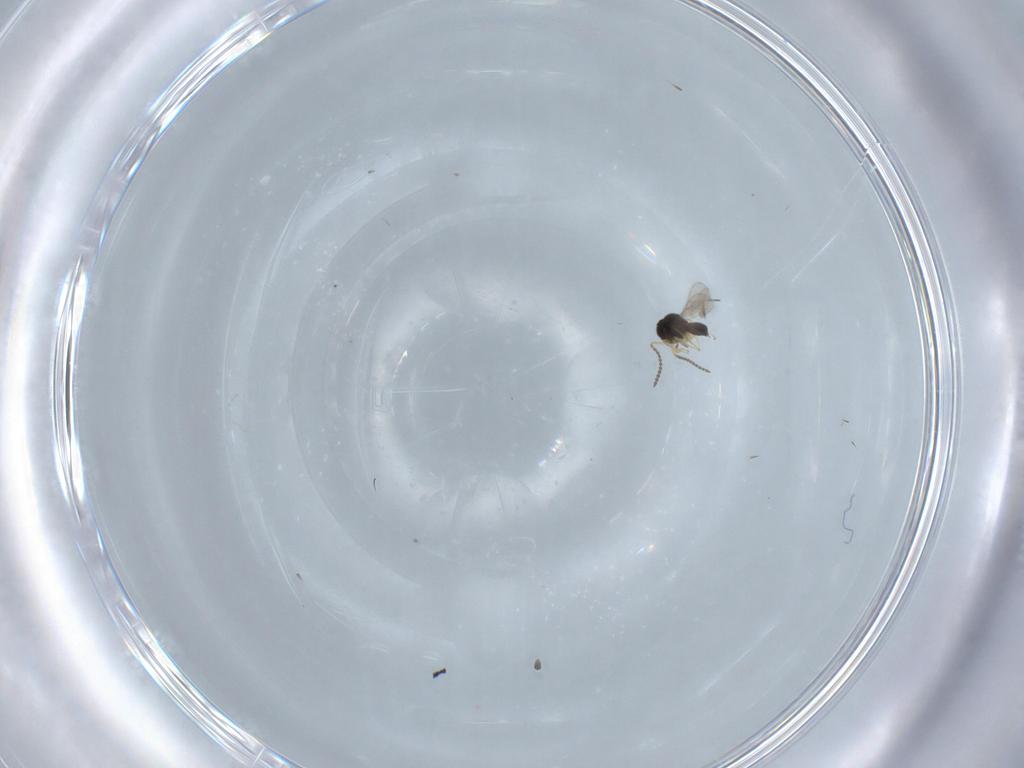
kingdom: Animalia
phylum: Arthropoda
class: Insecta
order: Hymenoptera
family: Scelionidae
